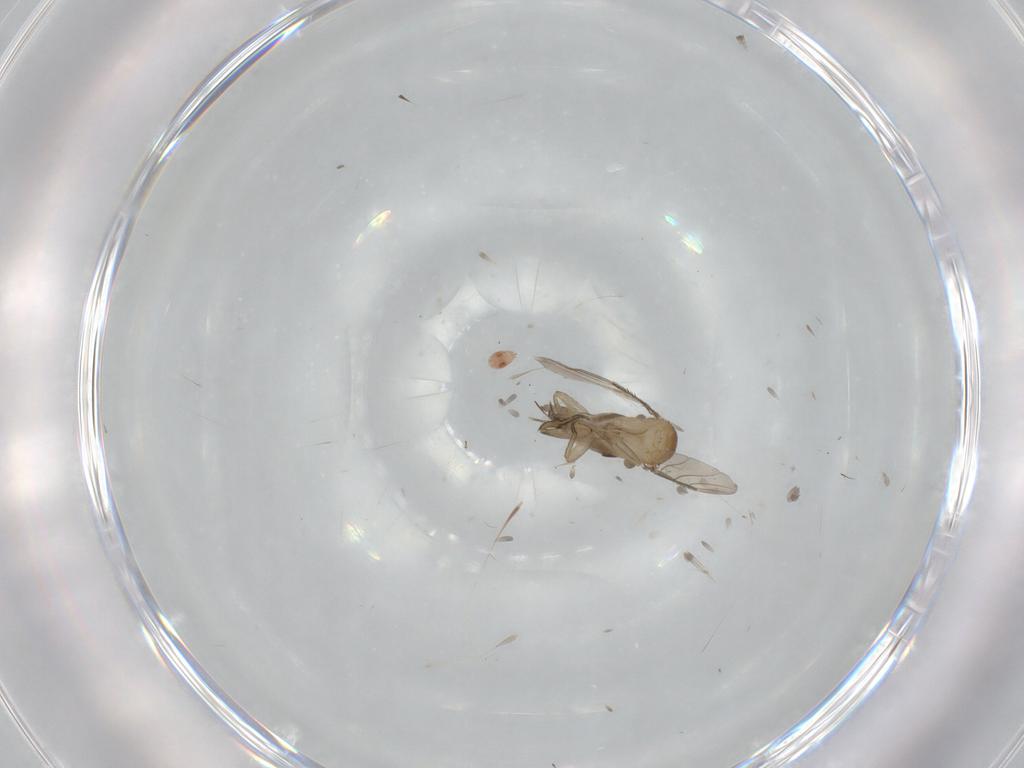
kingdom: Animalia
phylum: Arthropoda
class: Insecta
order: Diptera
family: Phoridae
